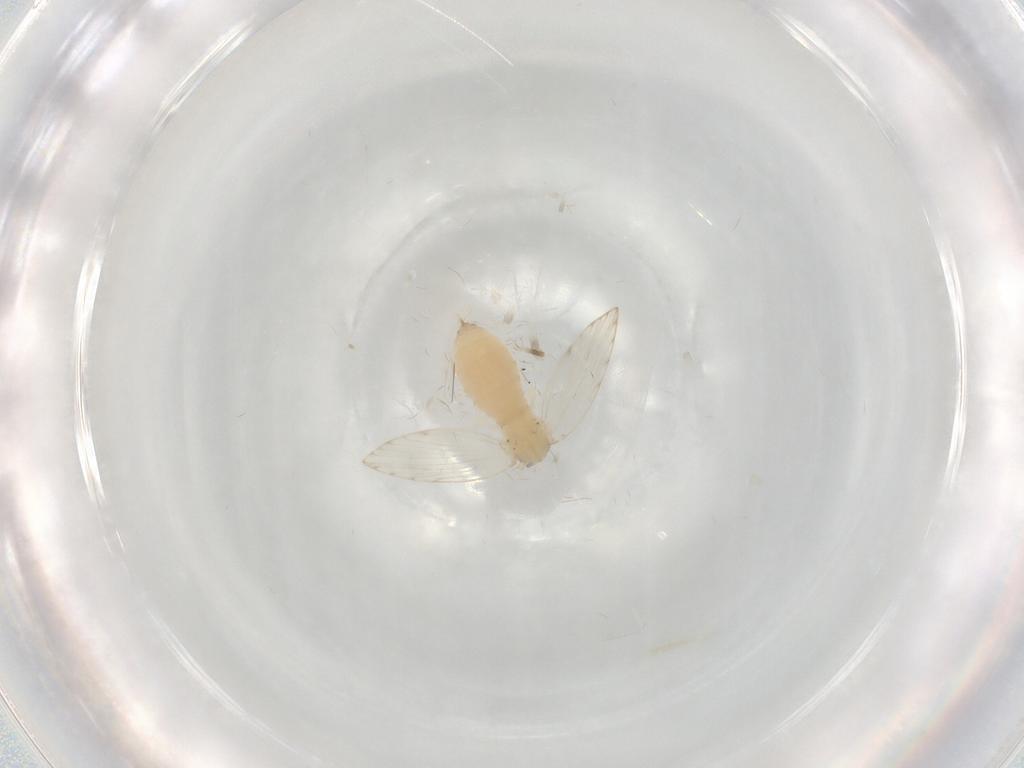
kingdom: Animalia
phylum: Arthropoda
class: Insecta
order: Diptera
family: Psychodidae
